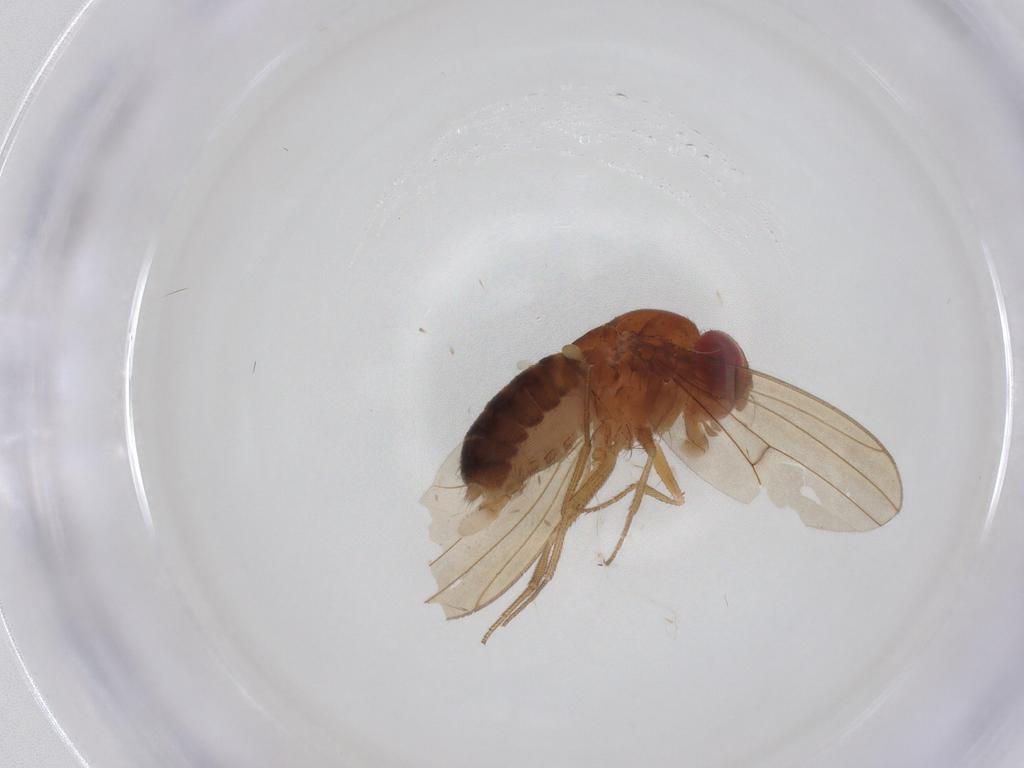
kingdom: Animalia
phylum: Arthropoda
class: Insecta
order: Diptera
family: Drosophilidae
